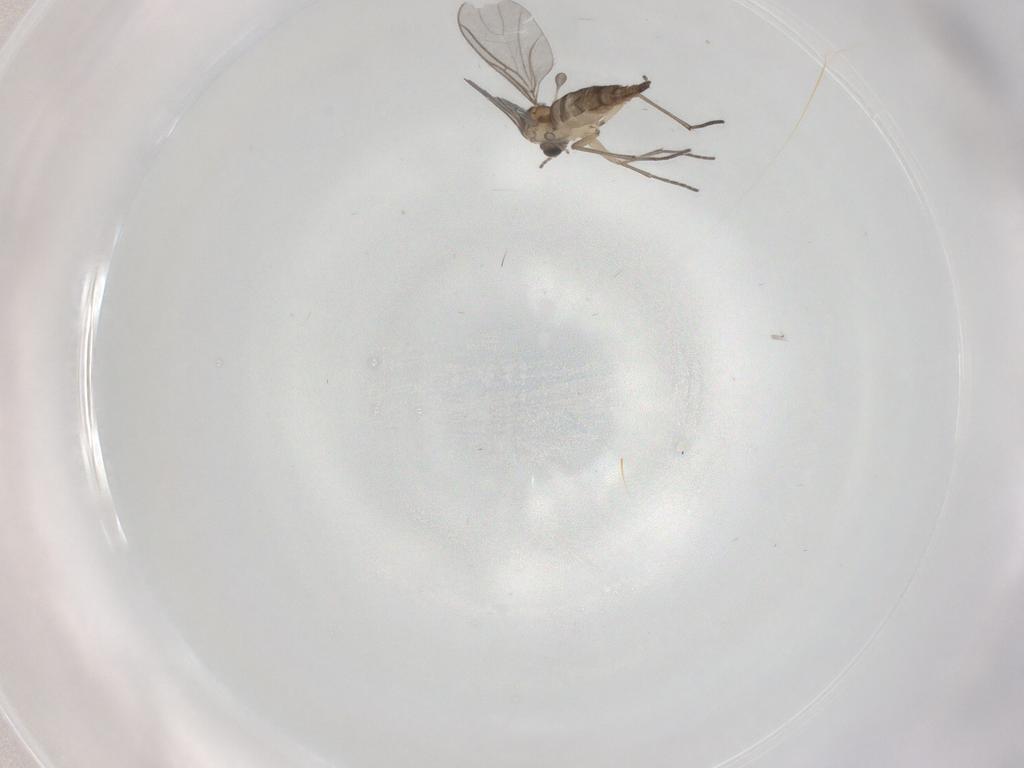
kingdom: Animalia
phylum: Arthropoda
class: Insecta
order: Diptera
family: Sciaridae
